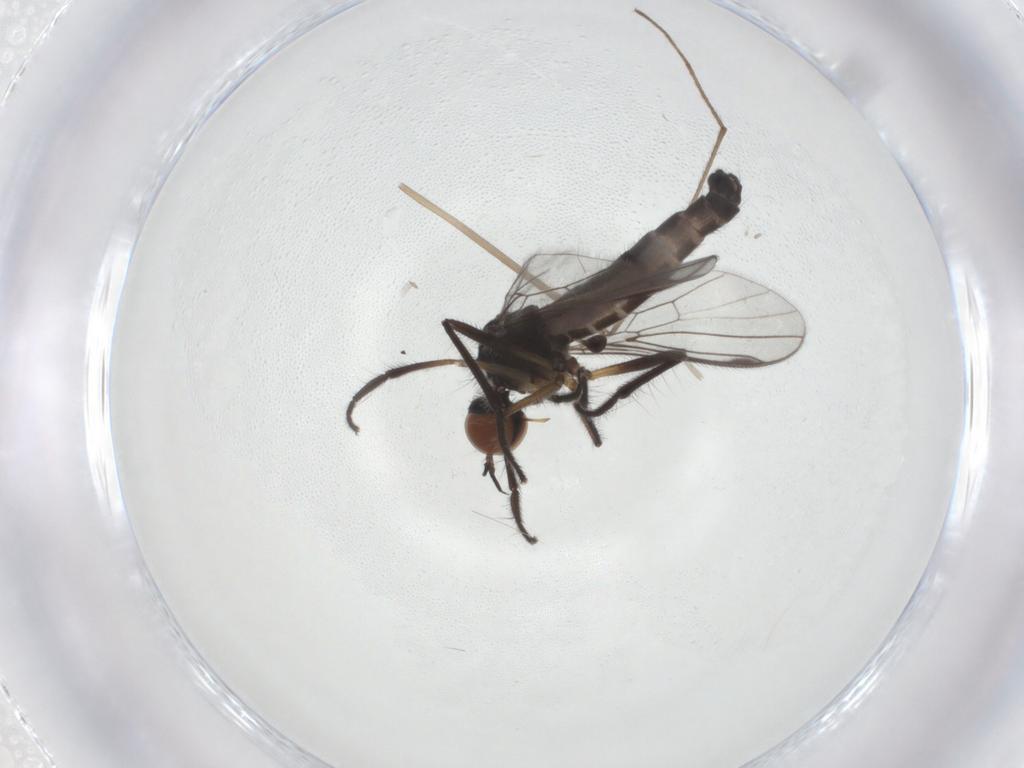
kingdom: Animalia
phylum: Arthropoda
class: Insecta
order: Diptera
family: Empididae
